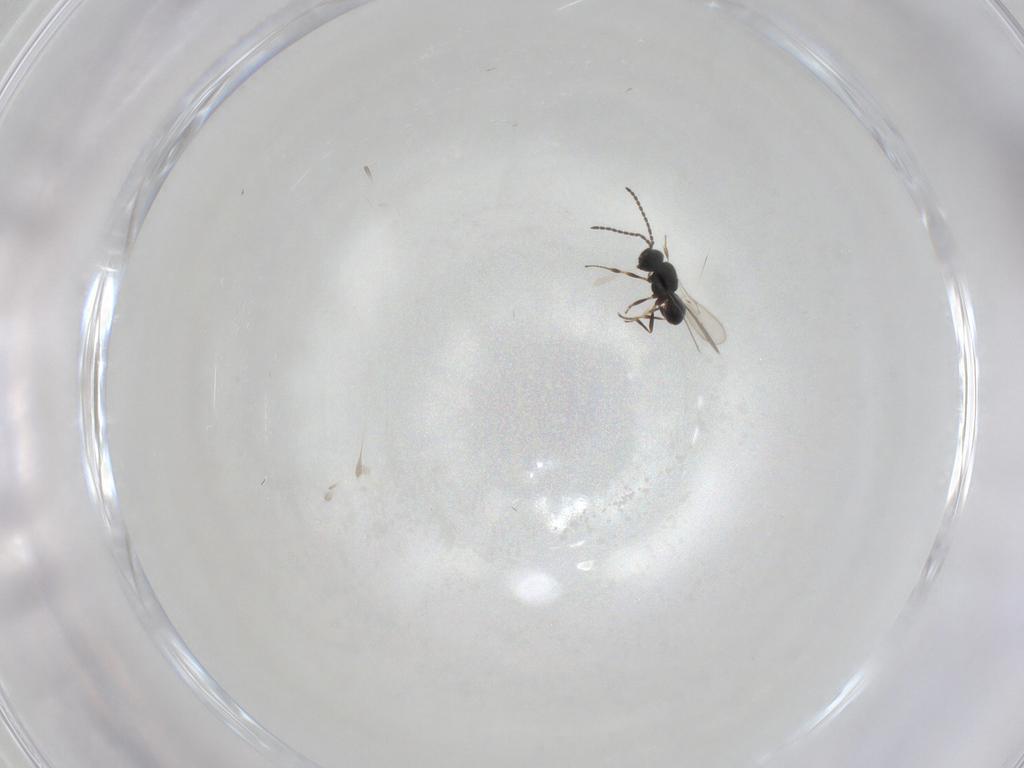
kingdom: Animalia
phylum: Arthropoda
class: Insecta
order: Hymenoptera
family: Scelionidae
